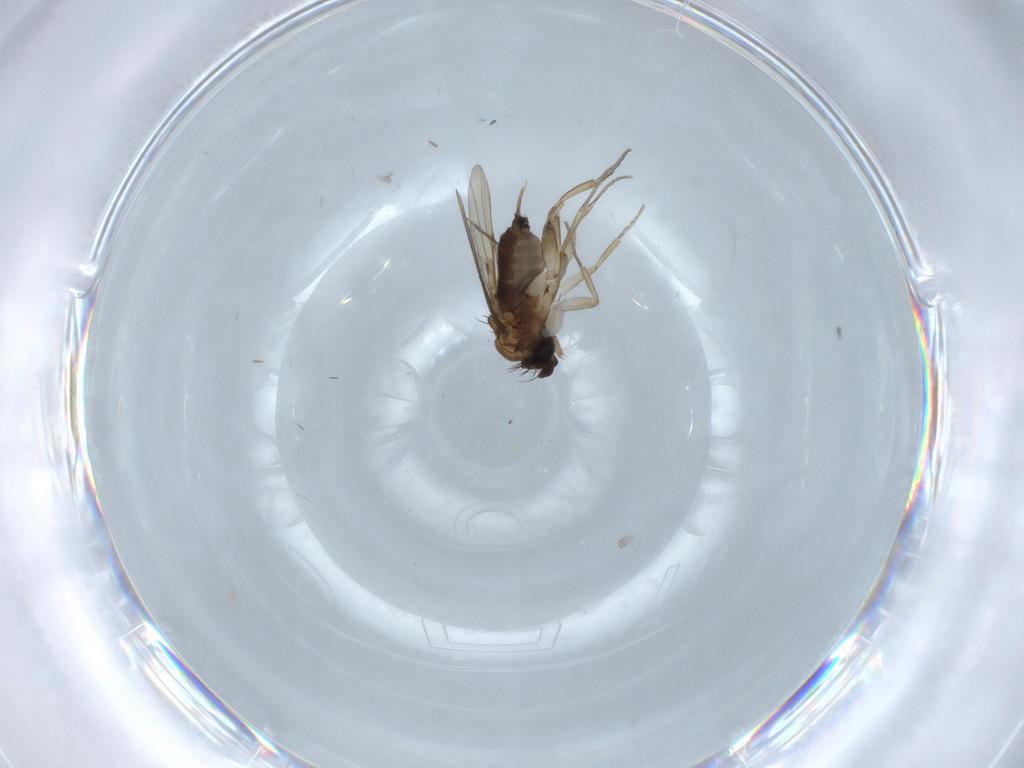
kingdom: Animalia
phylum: Arthropoda
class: Insecta
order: Diptera
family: Phoridae
